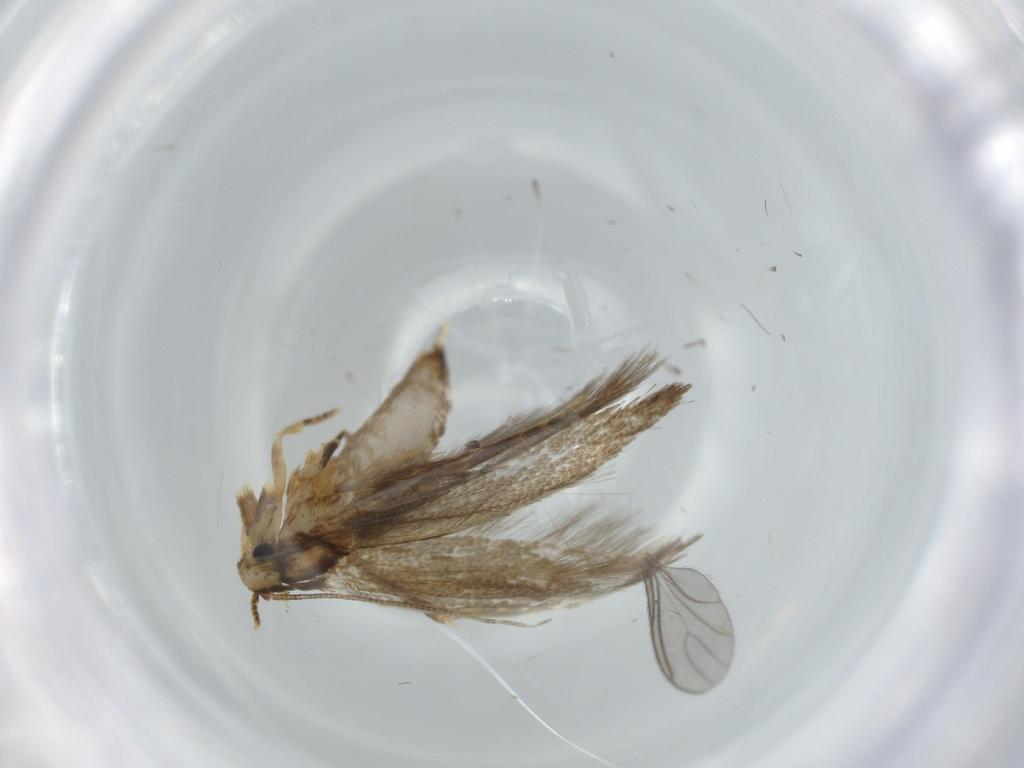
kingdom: Animalia
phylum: Arthropoda
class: Insecta
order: Lepidoptera
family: Tineidae
